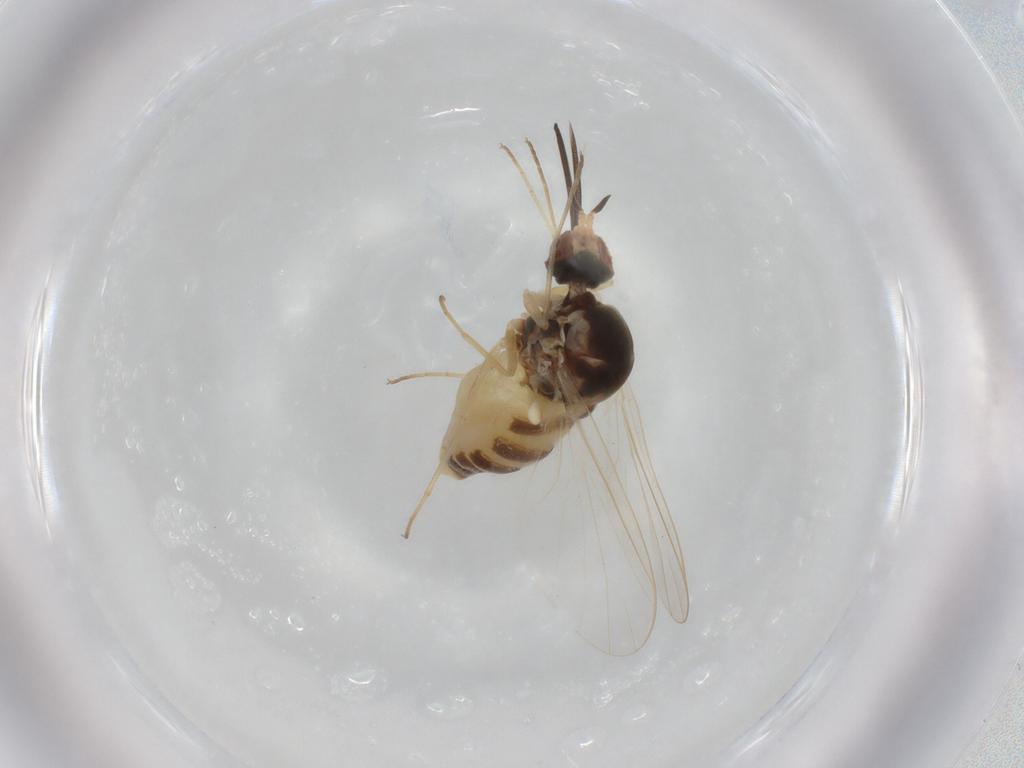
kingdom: Animalia
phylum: Arthropoda
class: Insecta
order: Diptera
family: Bombyliidae
